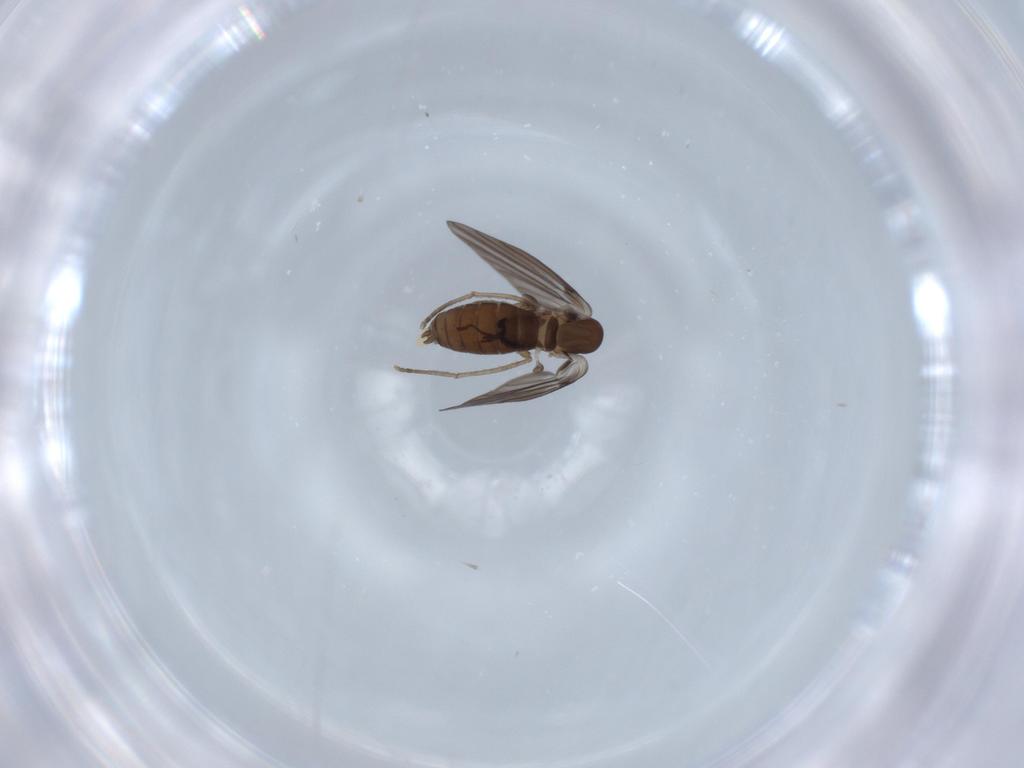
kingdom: Animalia
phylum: Arthropoda
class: Insecta
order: Diptera
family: Psychodidae
